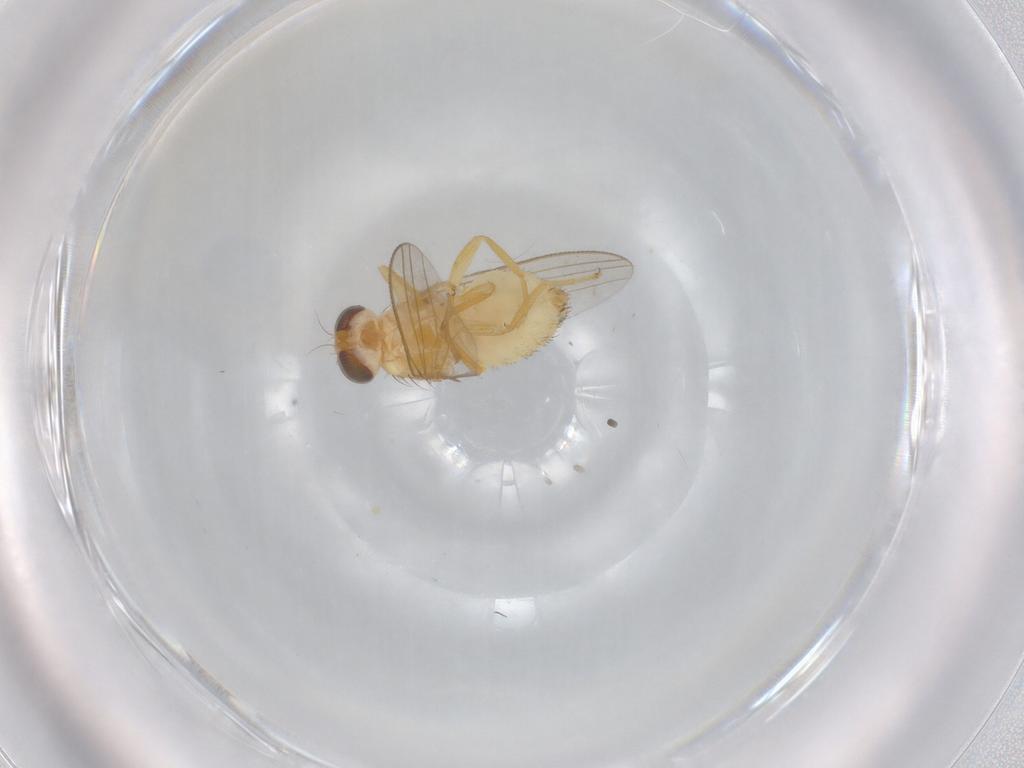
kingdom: Animalia
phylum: Arthropoda
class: Insecta
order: Diptera
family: Chyromyidae
